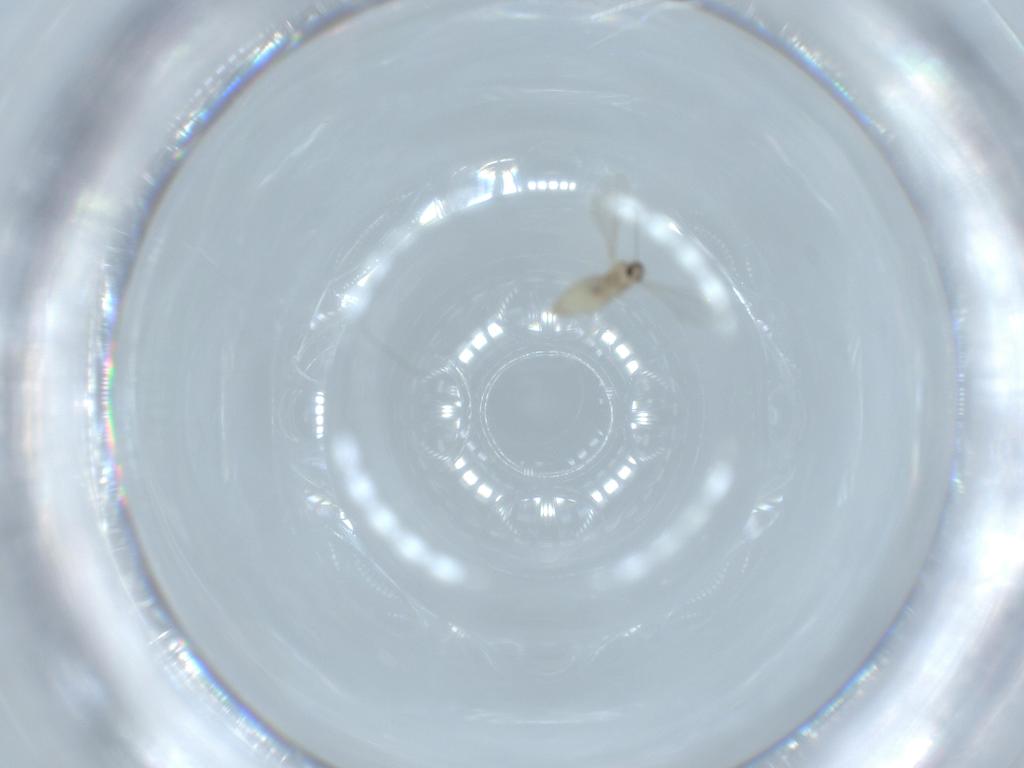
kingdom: Animalia
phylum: Arthropoda
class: Insecta
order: Diptera
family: Cecidomyiidae
